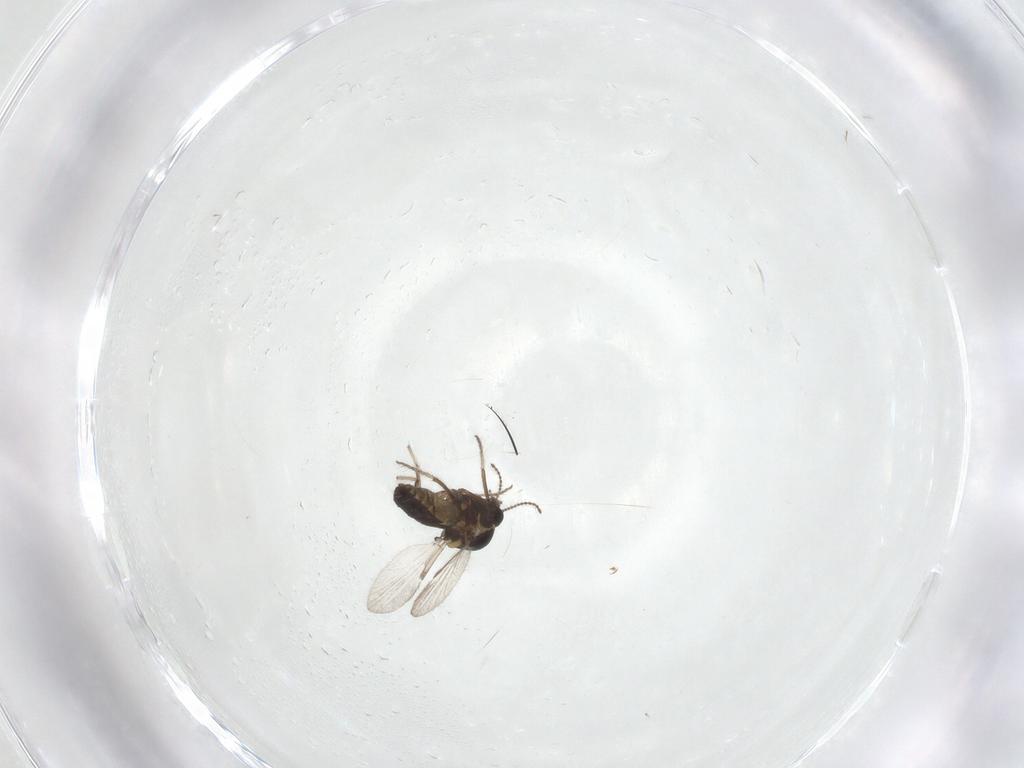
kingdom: Animalia
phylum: Arthropoda
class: Insecta
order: Diptera
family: Ceratopogonidae
